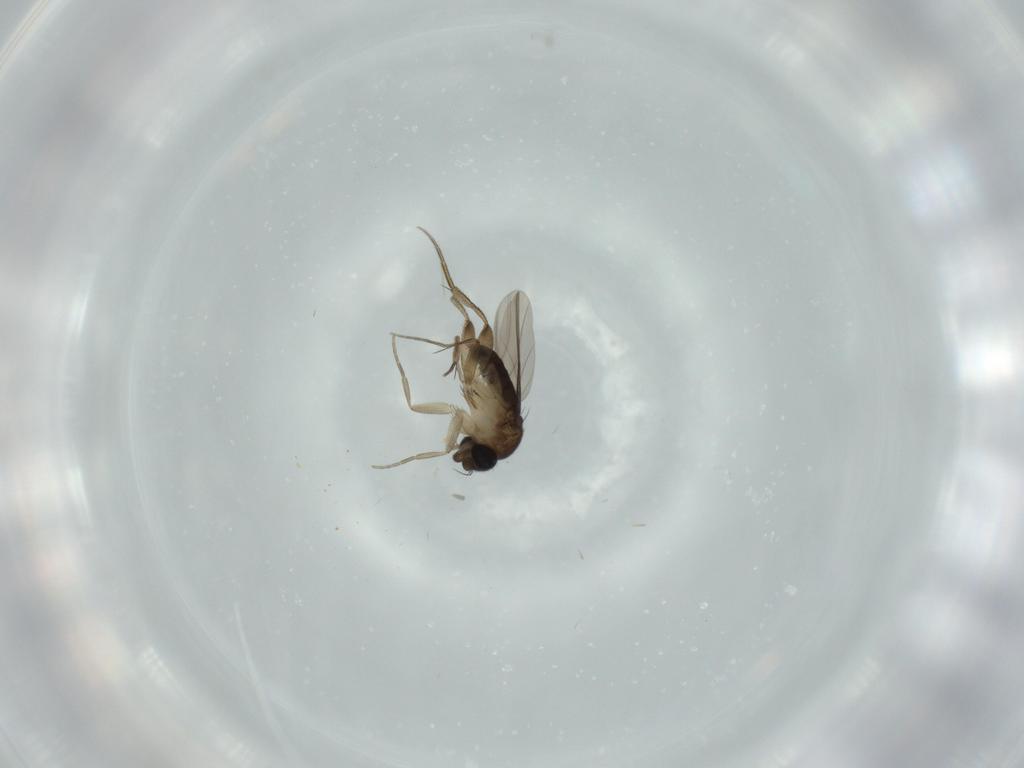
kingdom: Animalia
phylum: Arthropoda
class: Insecta
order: Diptera
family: Phoridae
